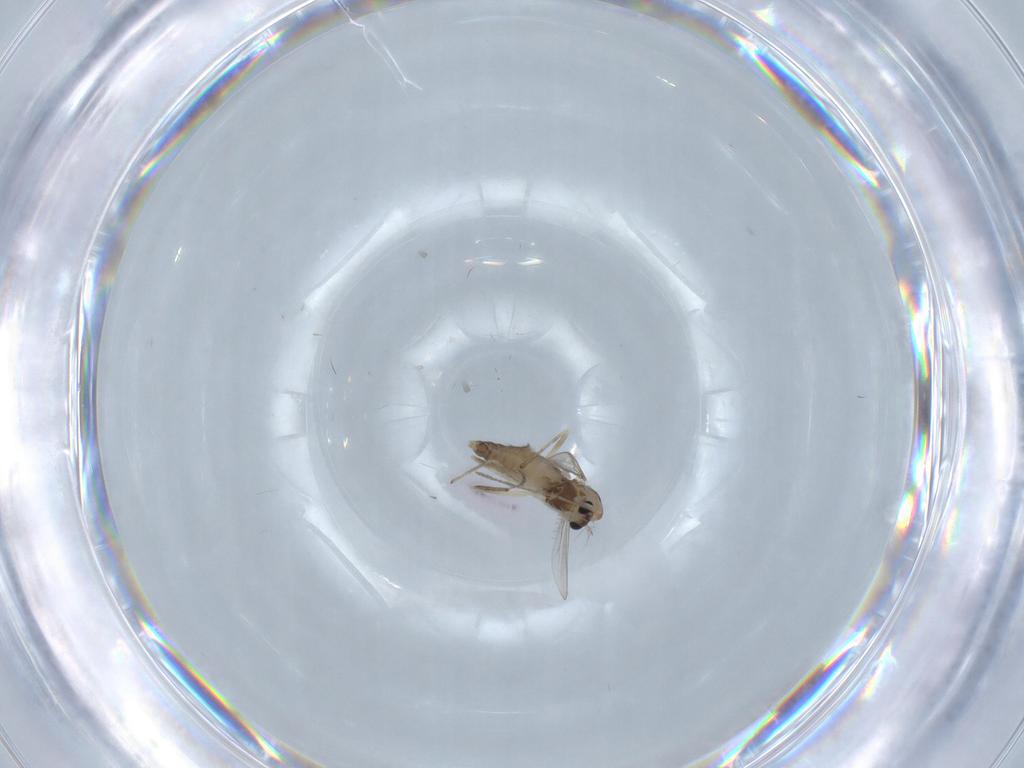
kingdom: Animalia
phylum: Arthropoda
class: Insecta
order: Diptera
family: Chironomidae
